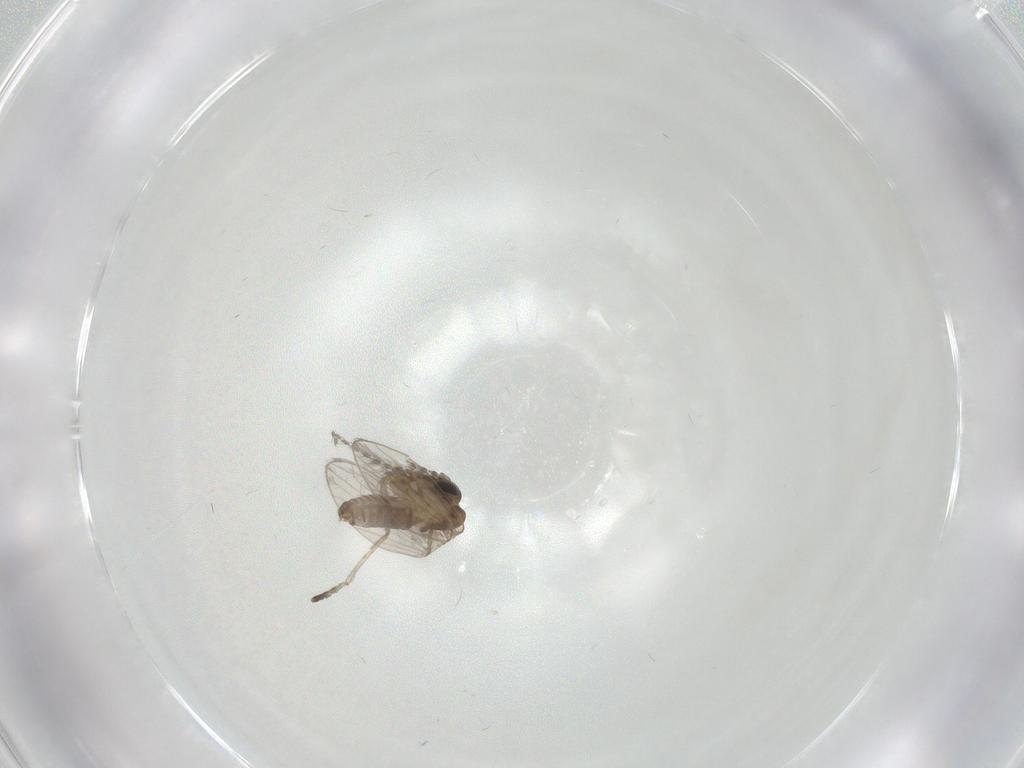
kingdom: Animalia
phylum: Arthropoda
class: Insecta
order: Diptera
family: Psychodidae
